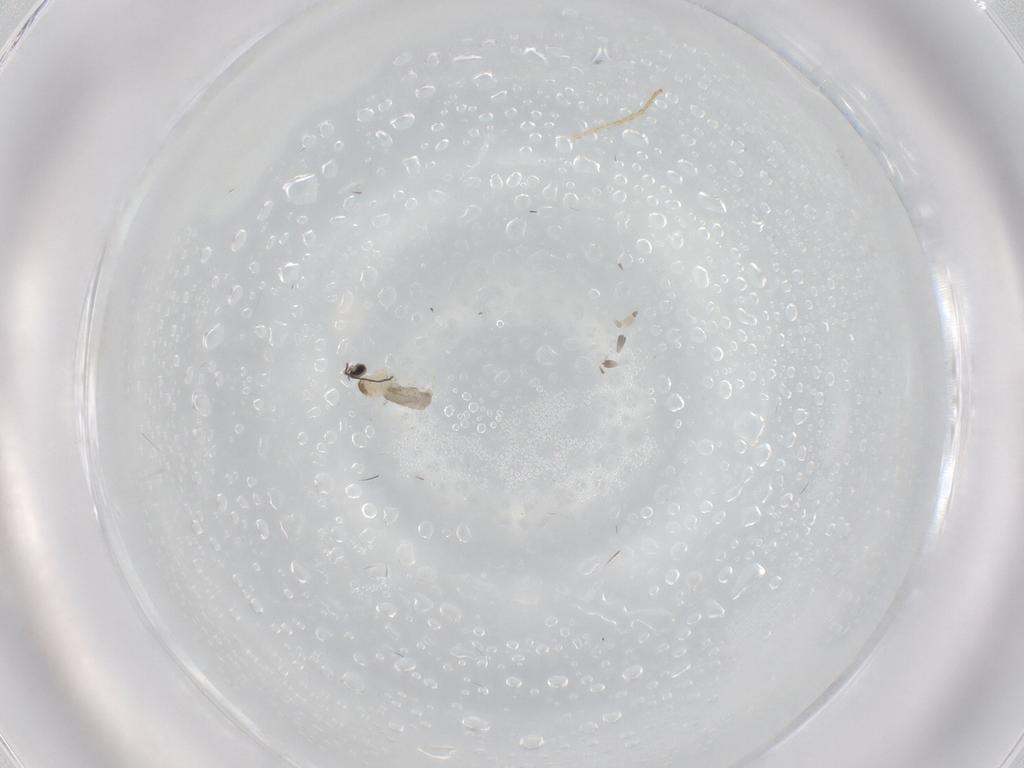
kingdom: Animalia
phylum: Arthropoda
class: Insecta
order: Diptera
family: Chironomidae
